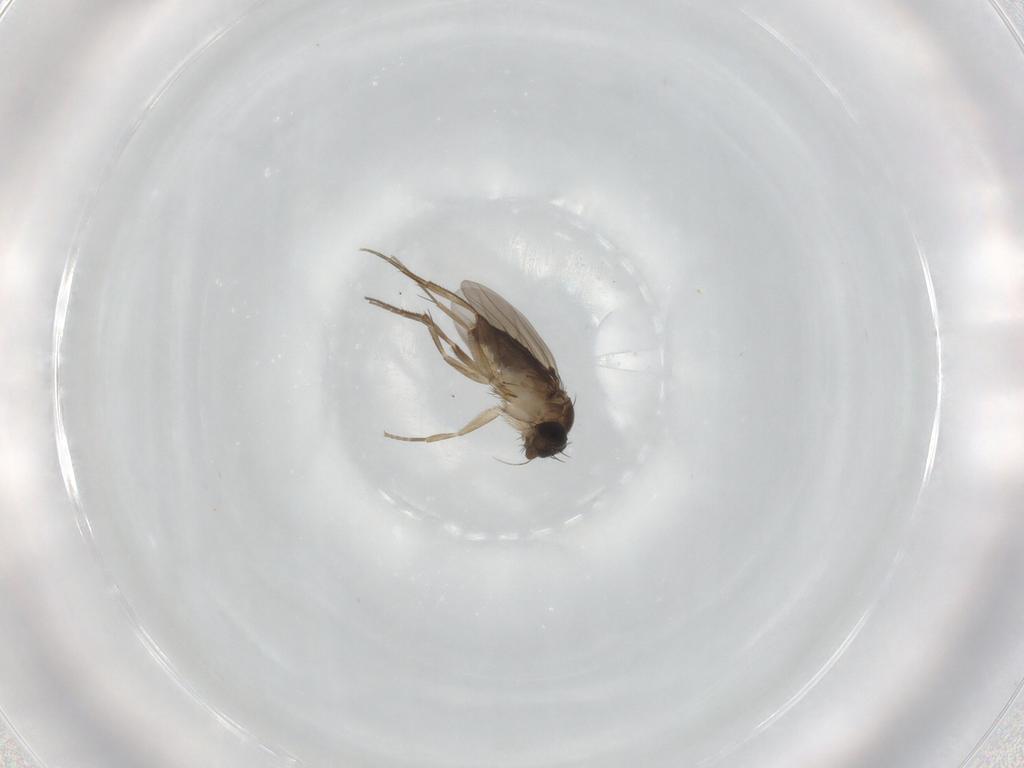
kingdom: Animalia
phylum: Arthropoda
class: Insecta
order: Diptera
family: Phoridae
